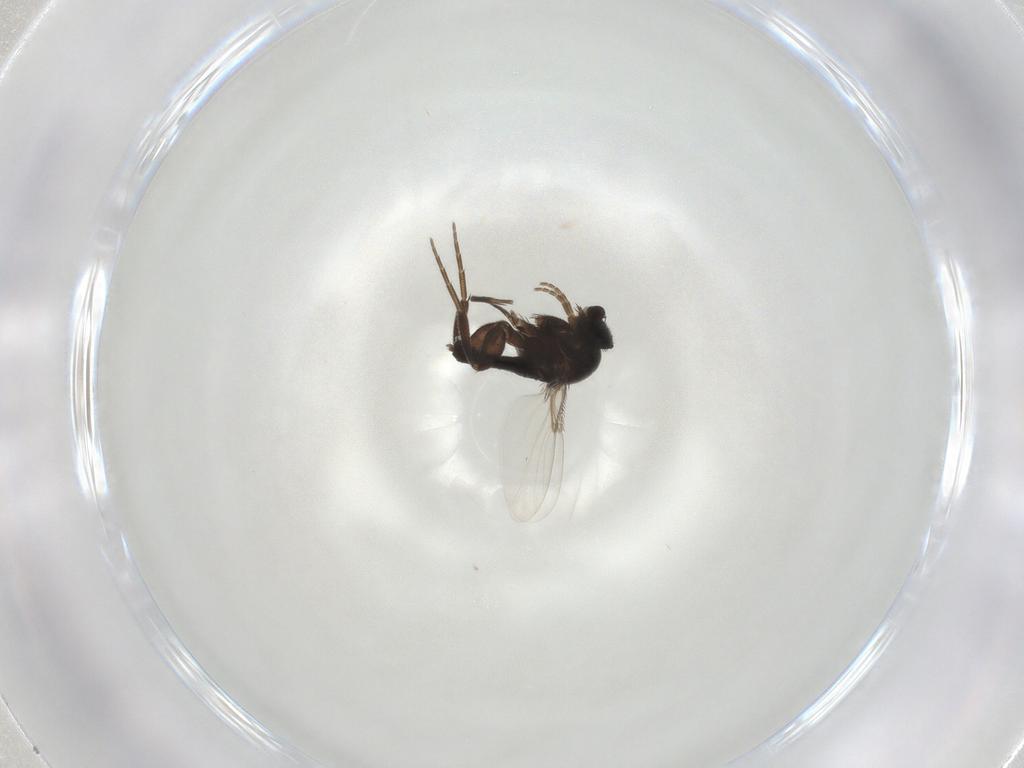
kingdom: Animalia
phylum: Arthropoda
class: Insecta
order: Diptera
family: Phoridae
